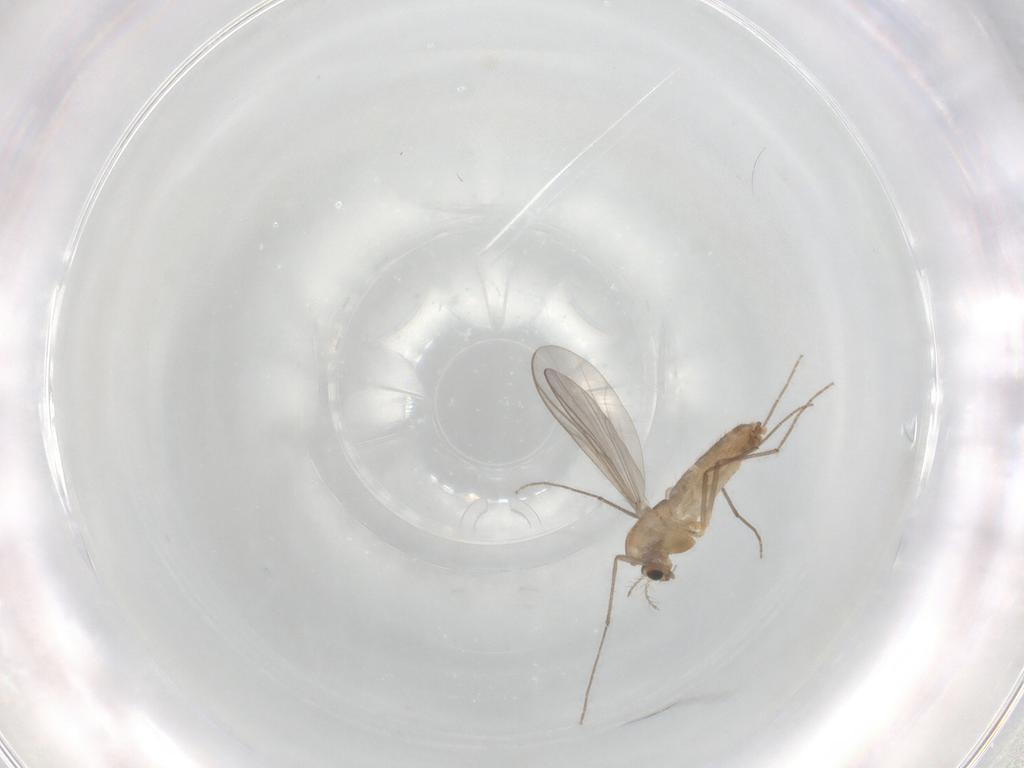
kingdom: Animalia
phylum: Arthropoda
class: Insecta
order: Diptera
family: Chironomidae
